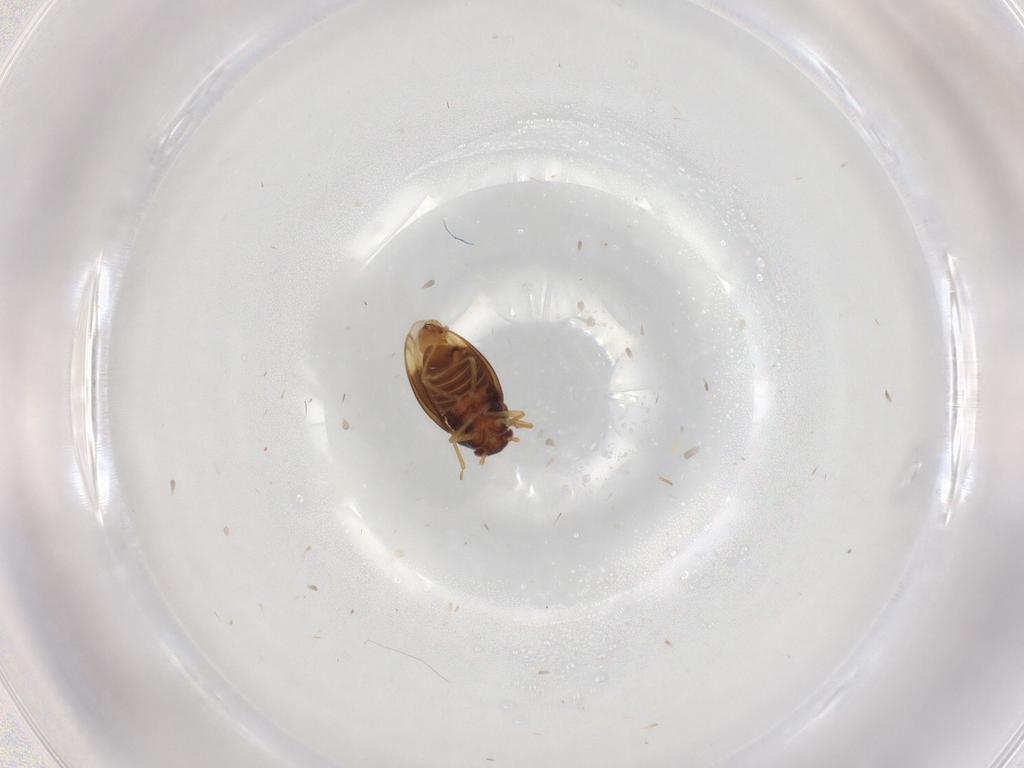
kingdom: Animalia
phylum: Arthropoda
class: Insecta
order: Hemiptera
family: Schizopteridae
